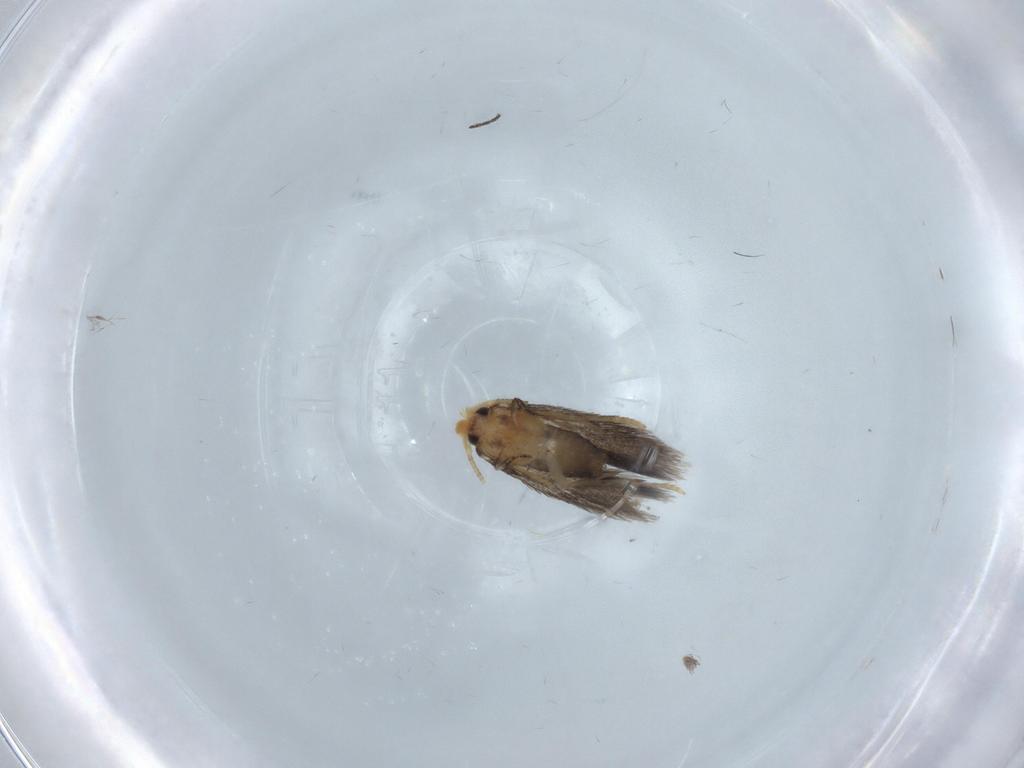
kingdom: Animalia
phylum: Arthropoda
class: Insecta
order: Lepidoptera
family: Nepticulidae
